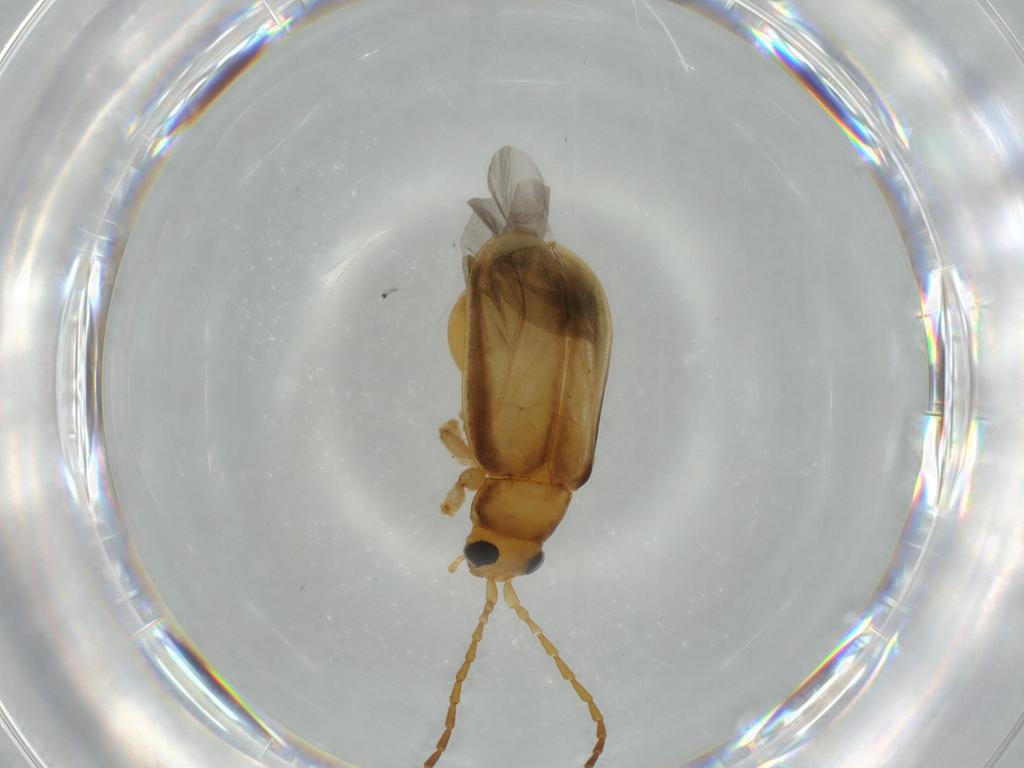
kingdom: Animalia
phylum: Arthropoda
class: Insecta
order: Coleoptera
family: Chrysomelidae
